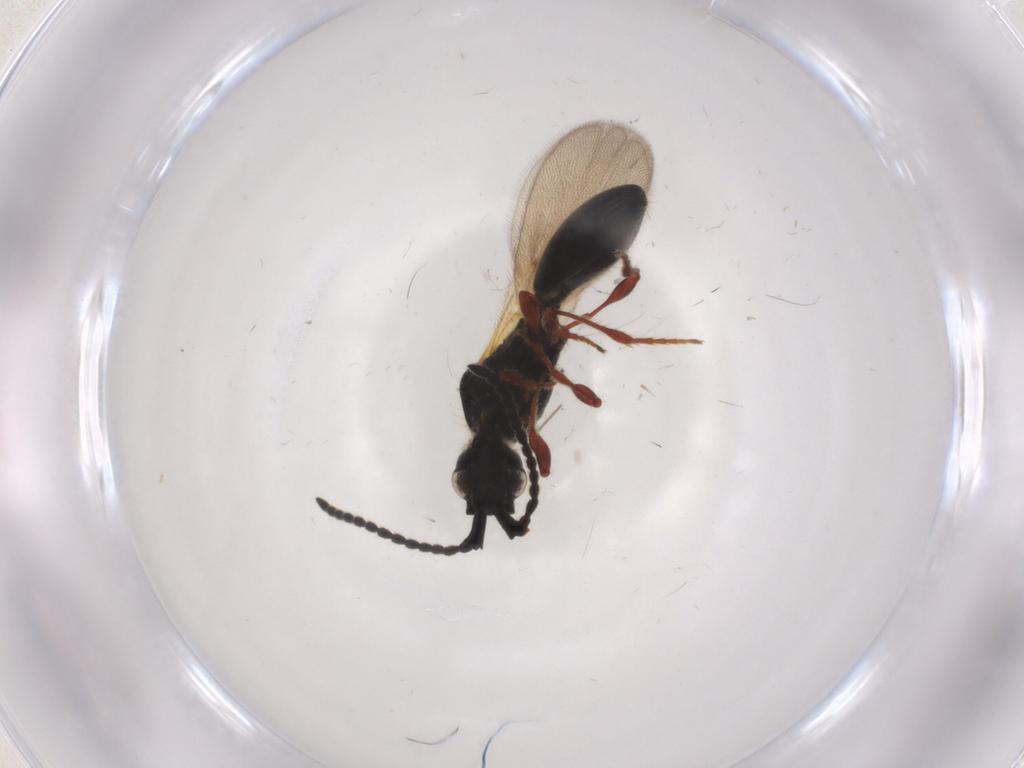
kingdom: Animalia
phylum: Arthropoda
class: Insecta
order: Hymenoptera
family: Diapriidae
